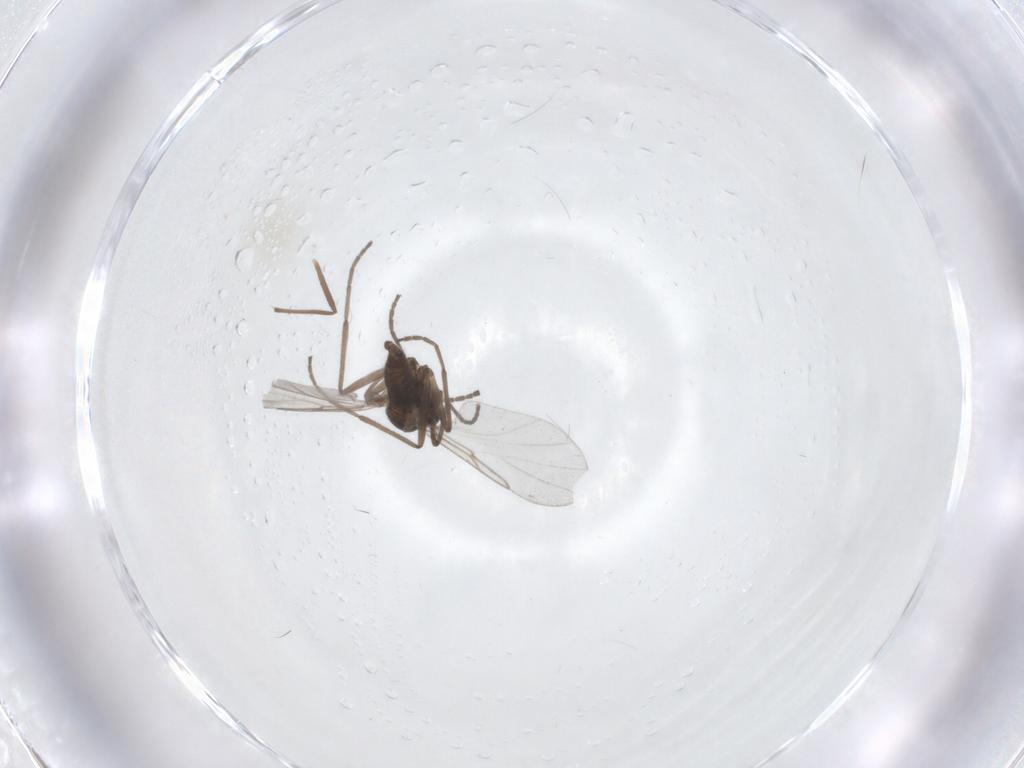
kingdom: Animalia
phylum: Arthropoda
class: Insecta
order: Diptera
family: Cecidomyiidae
